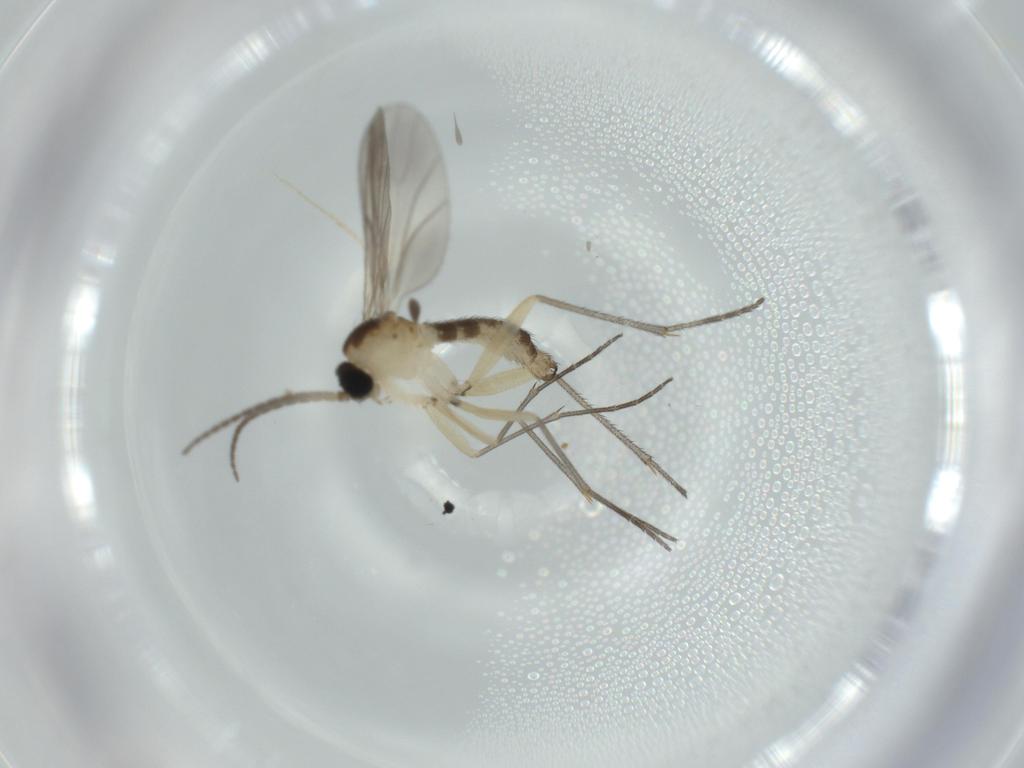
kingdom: Animalia
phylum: Arthropoda
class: Insecta
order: Diptera
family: Sciaridae
